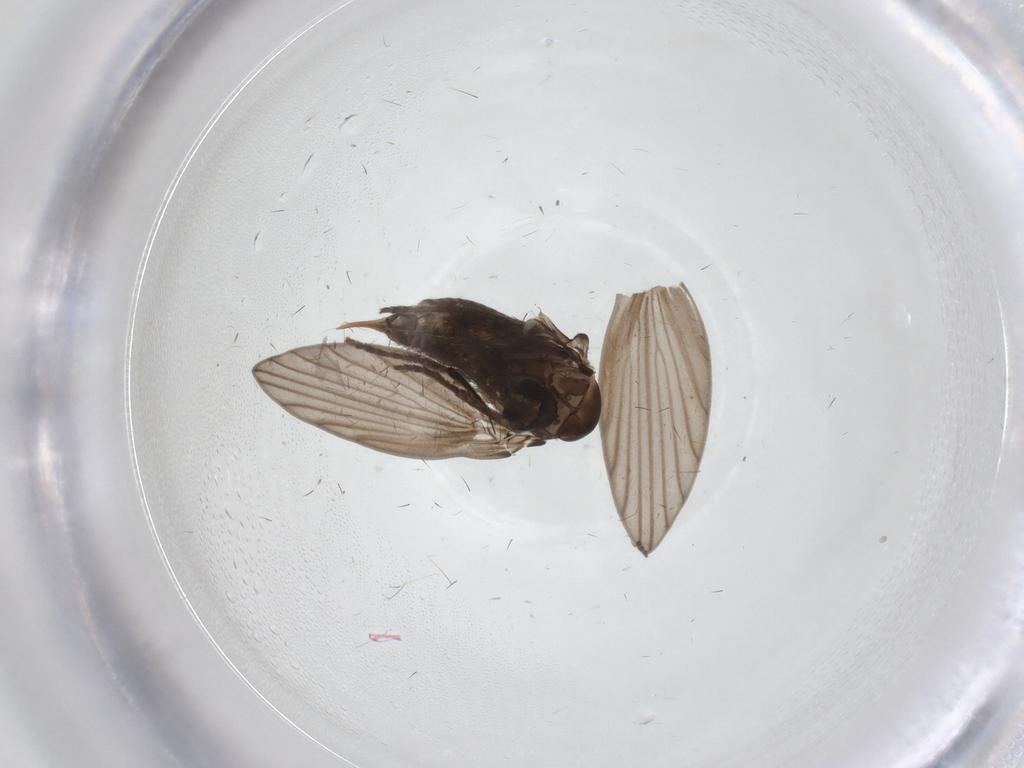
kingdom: Animalia
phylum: Arthropoda
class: Insecta
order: Diptera
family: Psychodidae
